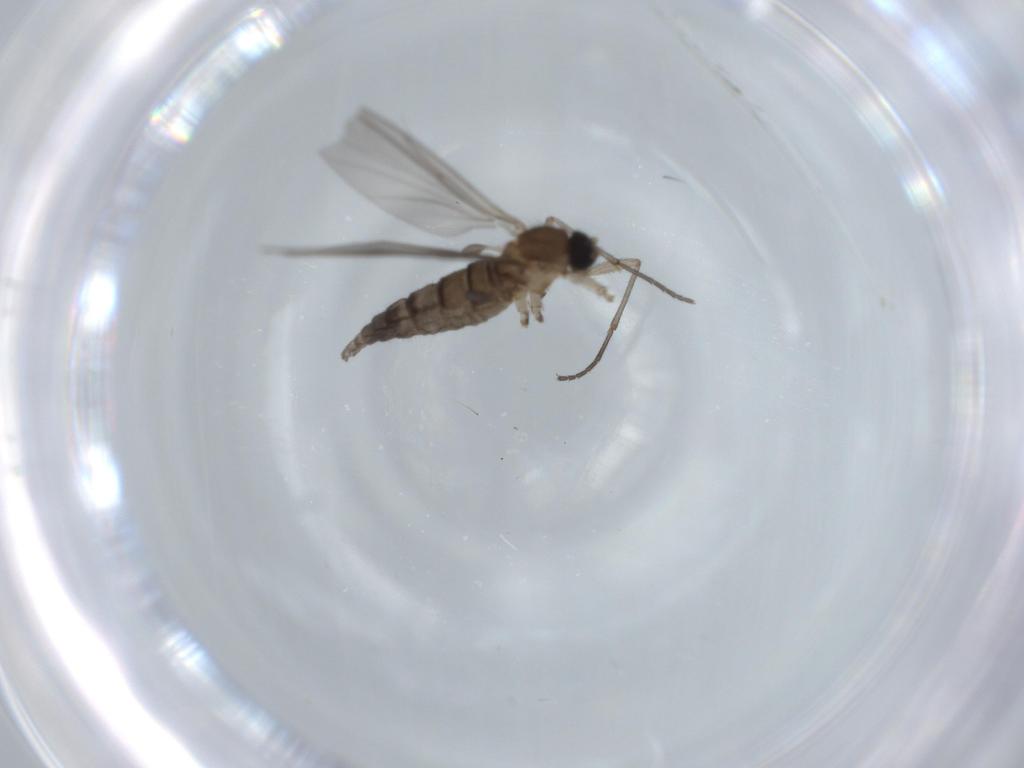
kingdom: Animalia
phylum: Arthropoda
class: Insecta
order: Diptera
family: Sciaridae
